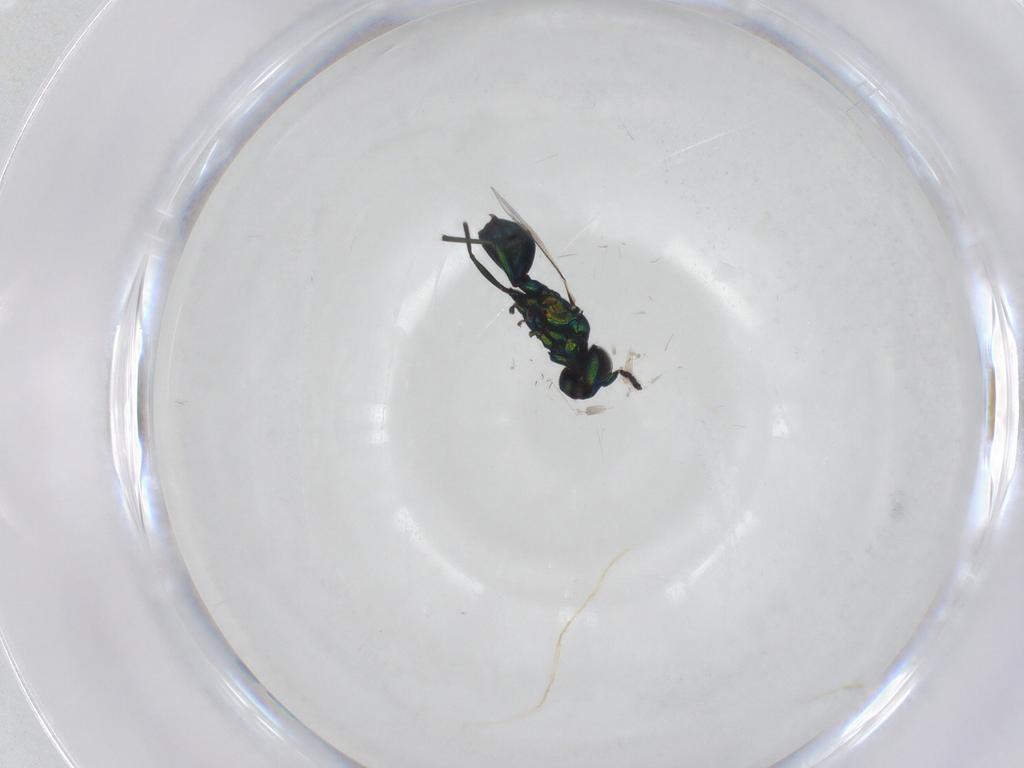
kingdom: Animalia
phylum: Arthropoda
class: Insecta
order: Hymenoptera
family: Eulophidae
